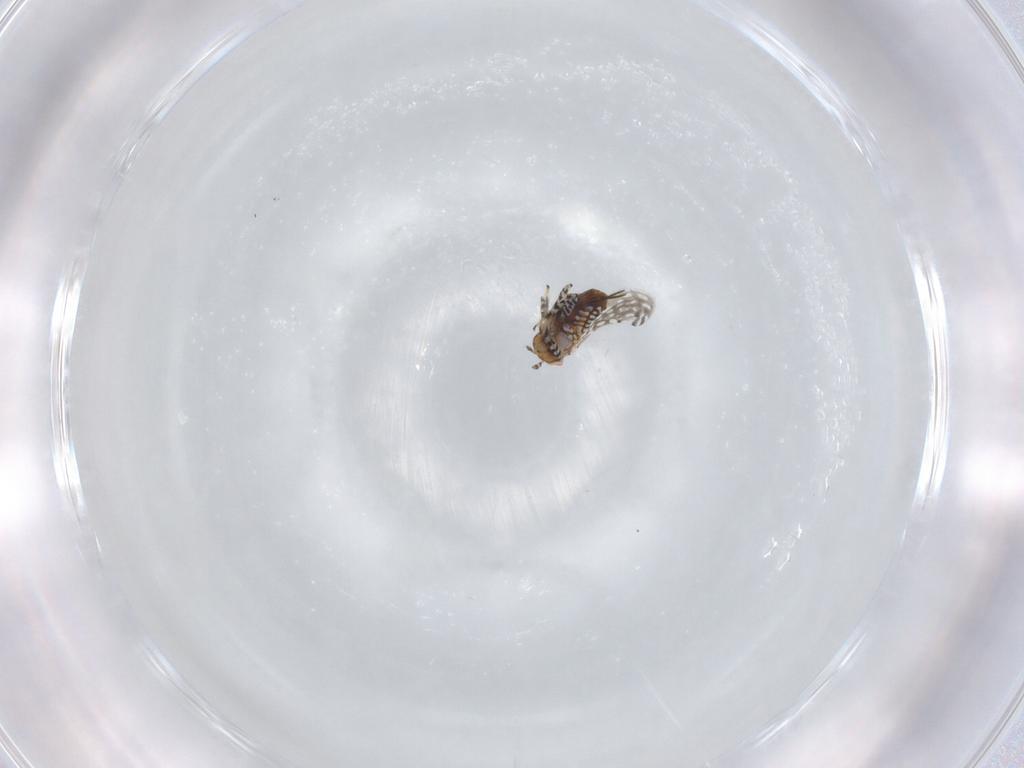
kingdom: Animalia
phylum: Arthropoda
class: Insecta
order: Hymenoptera
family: Aphelinidae
